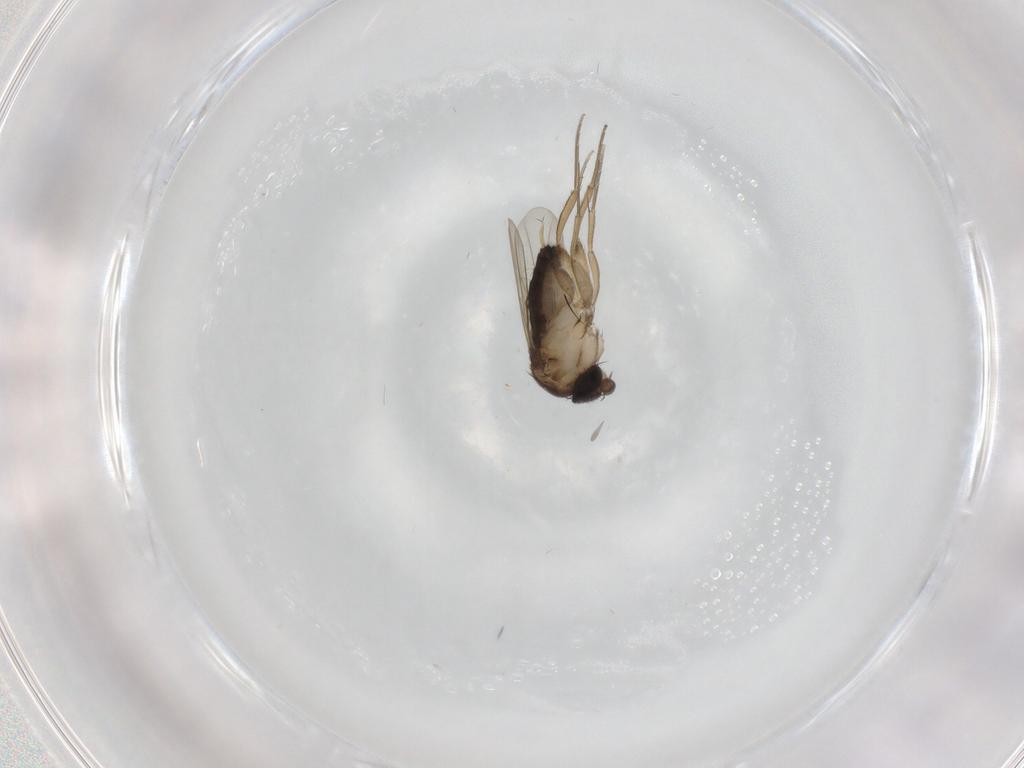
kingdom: Animalia
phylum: Arthropoda
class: Insecta
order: Diptera
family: Phoridae
